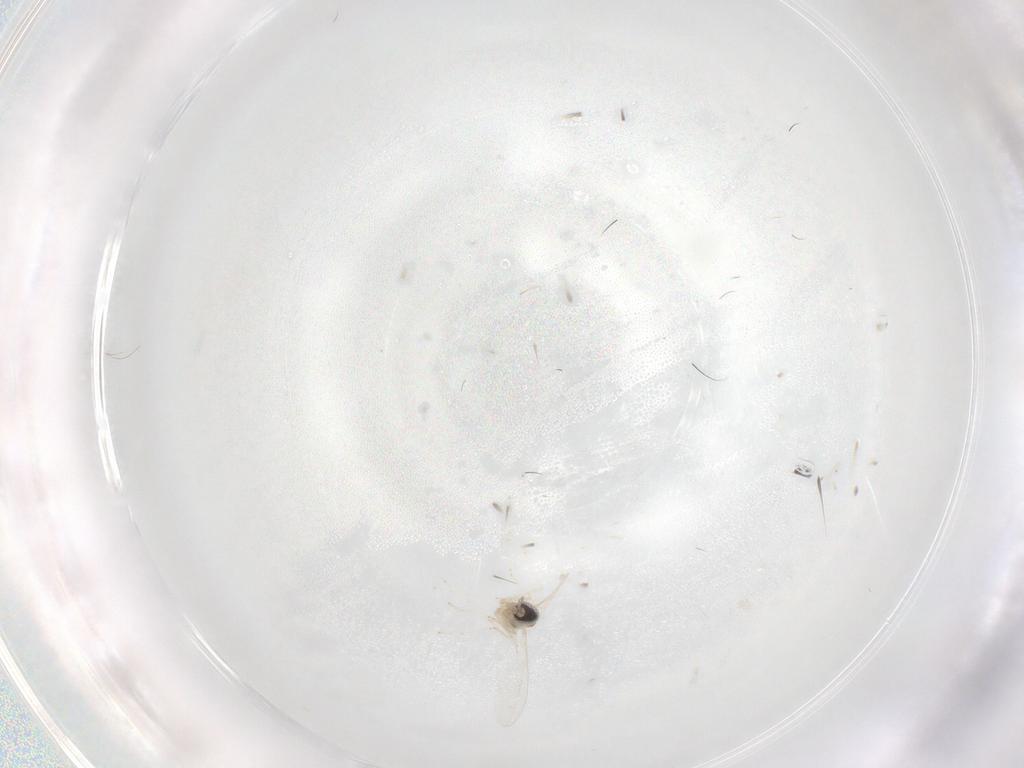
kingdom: Animalia
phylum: Arthropoda
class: Insecta
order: Diptera
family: Cecidomyiidae
